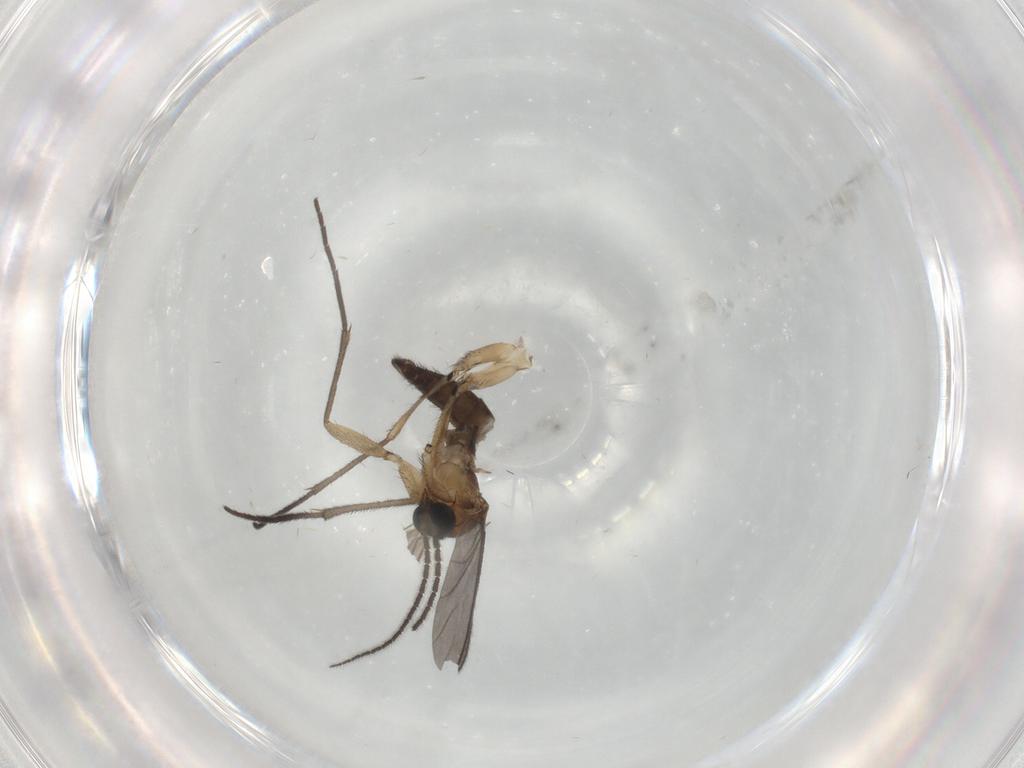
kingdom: Animalia
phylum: Arthropoda
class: Insecta
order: Diptera
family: Sciaridae
